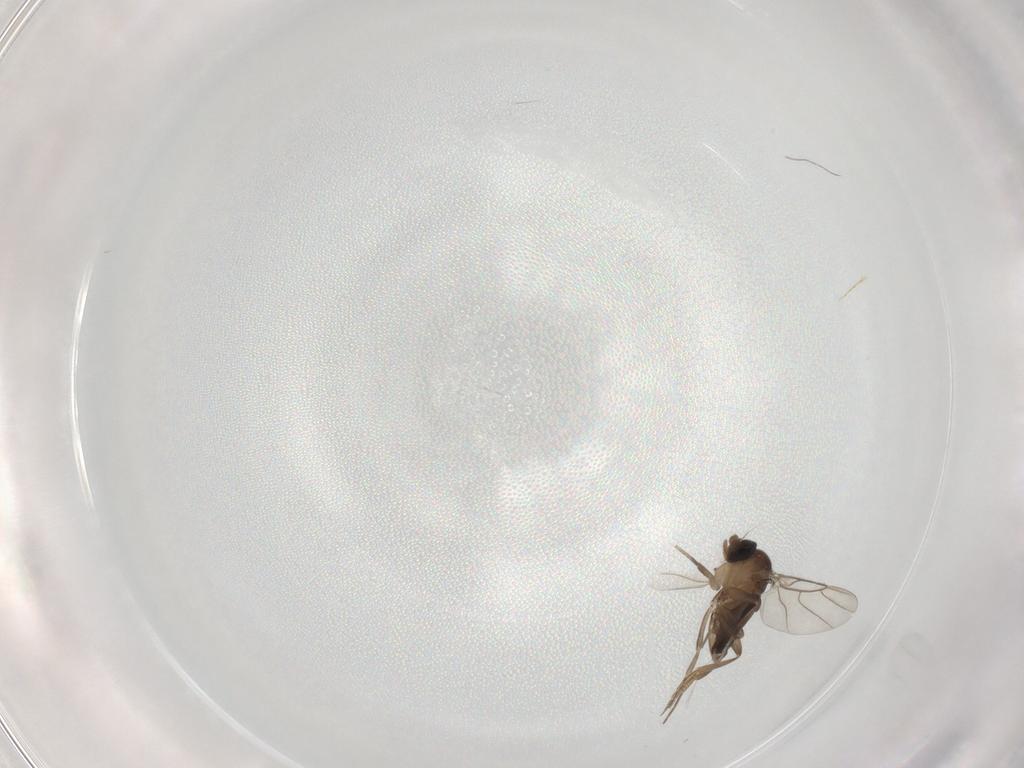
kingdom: Animalia
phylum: Arthropoda
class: Insecta
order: Diptera
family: Phoridae
